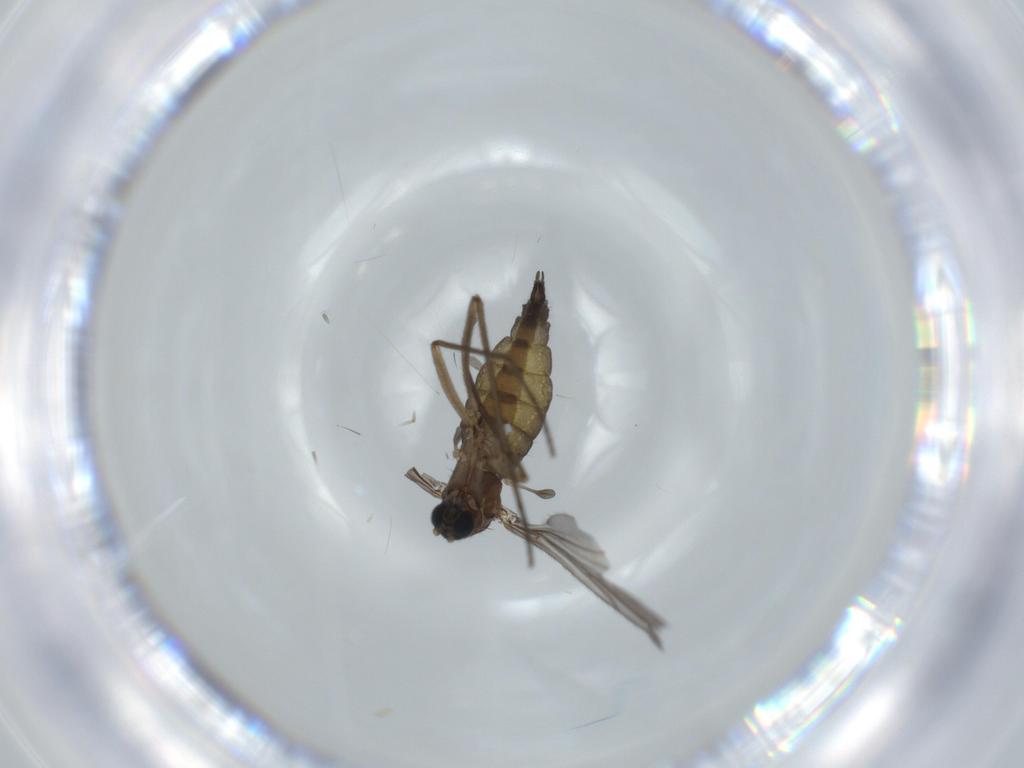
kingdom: Animalia
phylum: Arthropoda
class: Insecta
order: Diptera
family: Sciaridae
